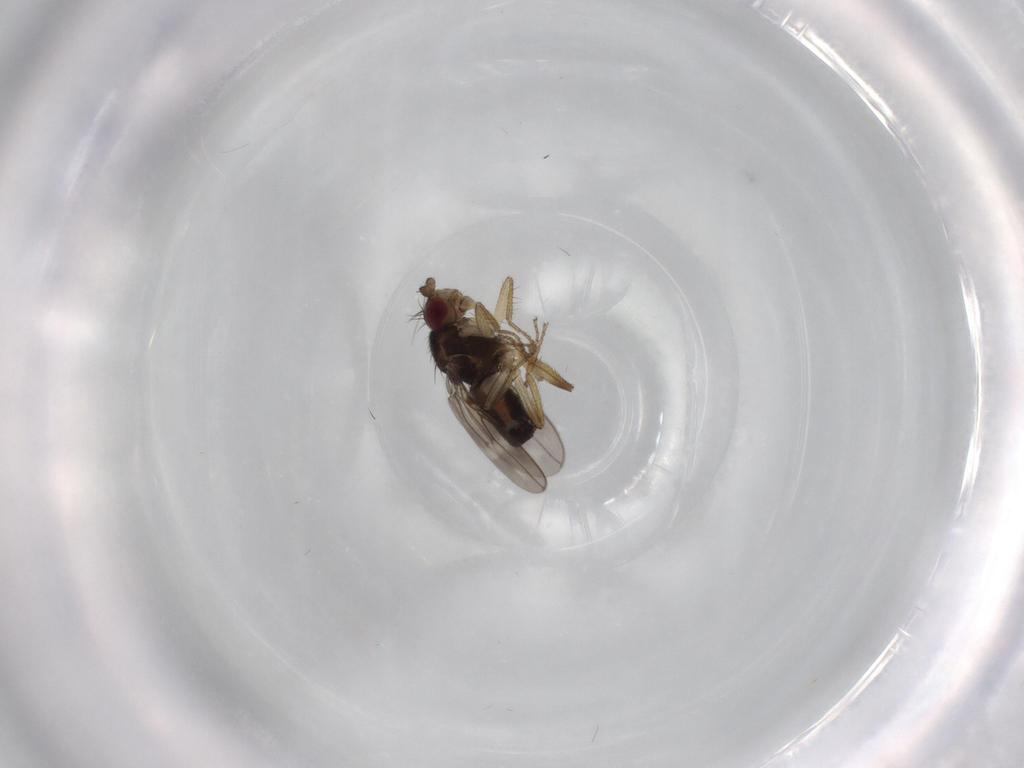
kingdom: Animalia
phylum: Arthropoda
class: Insecta
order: Diptera
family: Sphaeroceridae
